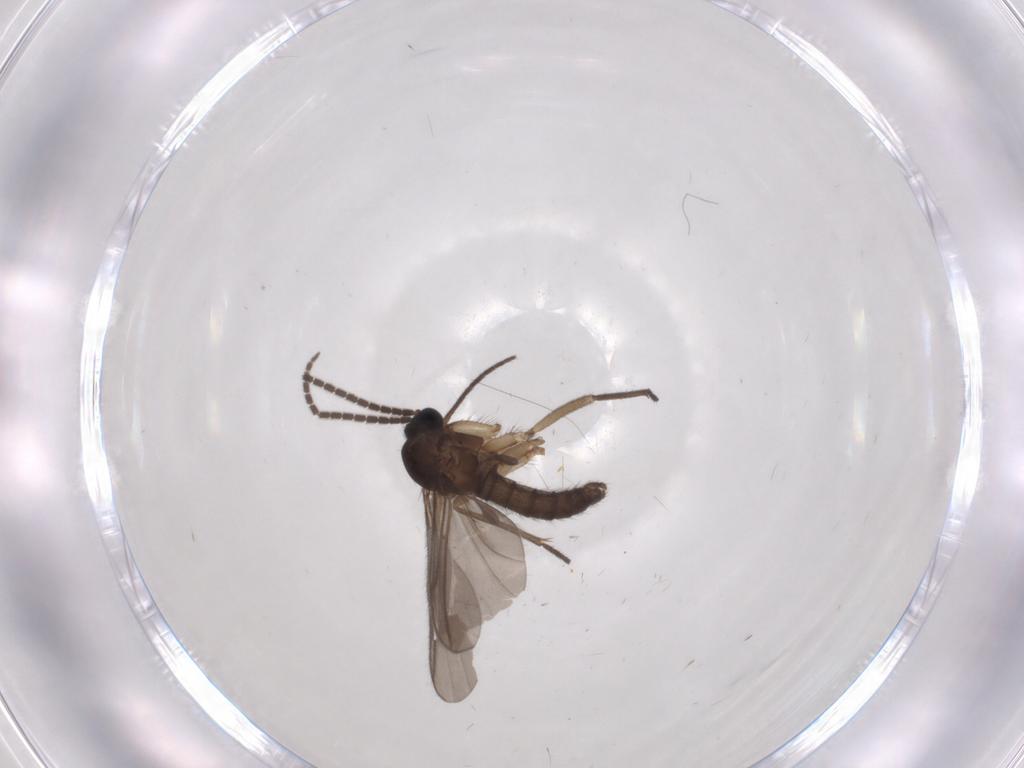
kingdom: Animalia
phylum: Arthropoda
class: Insecta
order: Diptera
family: Sciaridae
